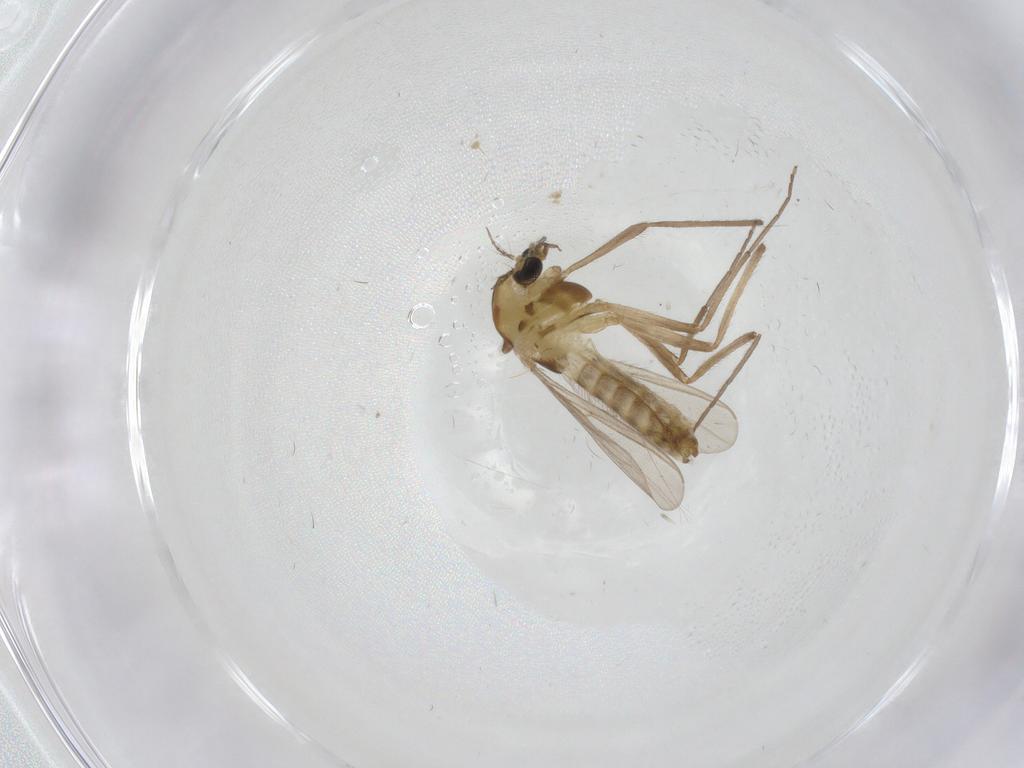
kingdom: Animalia
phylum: Arthropoda
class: Insecta
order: Diptera
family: Chironomidae
